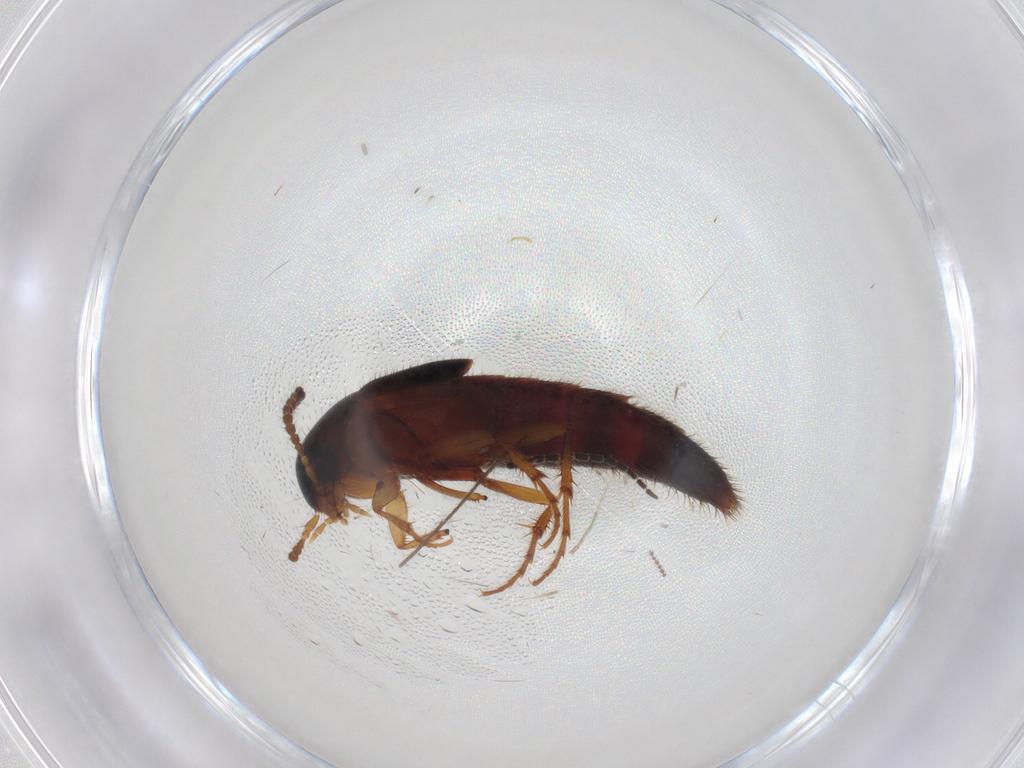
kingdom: Animalia
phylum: Arthropoda
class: Insecta
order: Coleoptera
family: Staphylinidae
